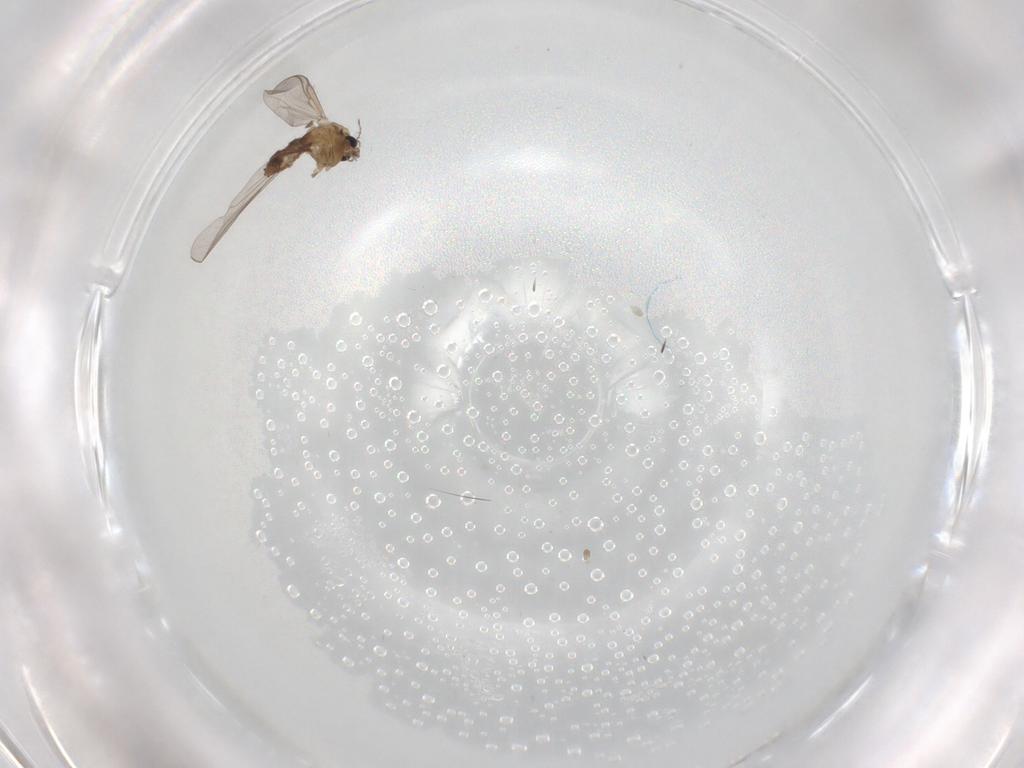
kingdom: Animalia
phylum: Arthropoda
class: Insecta
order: Diptera
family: Chironomidae
